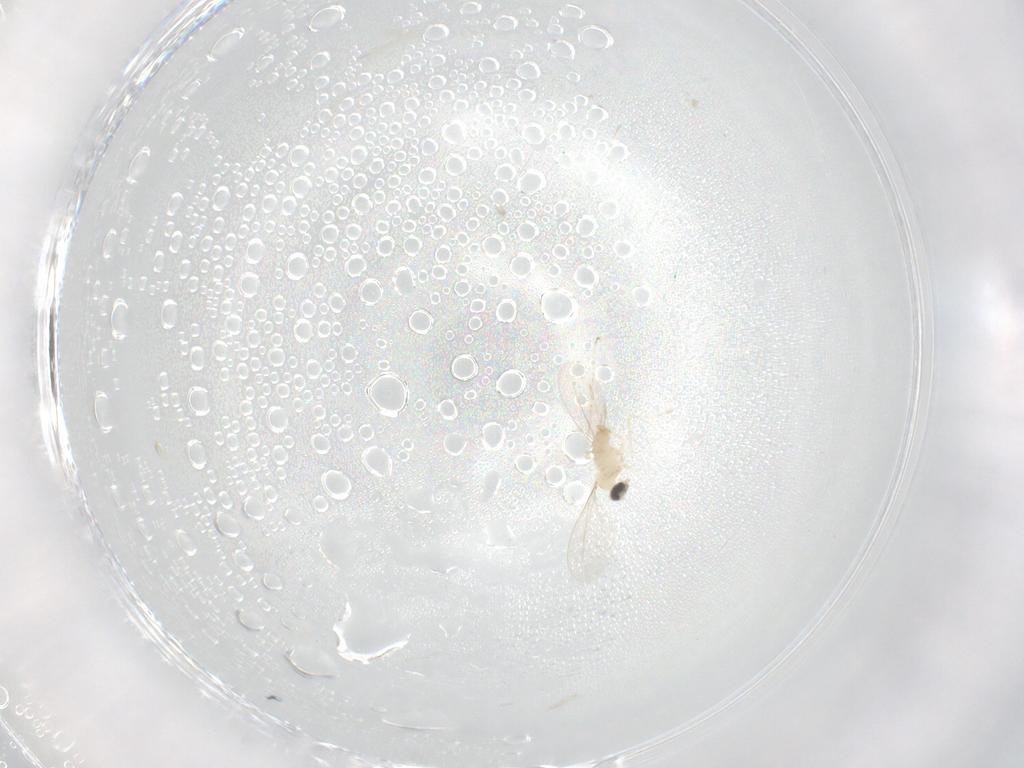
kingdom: Animalia
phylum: Arthropoda
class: Insecta
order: Diptera
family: Cecidomyiidae
